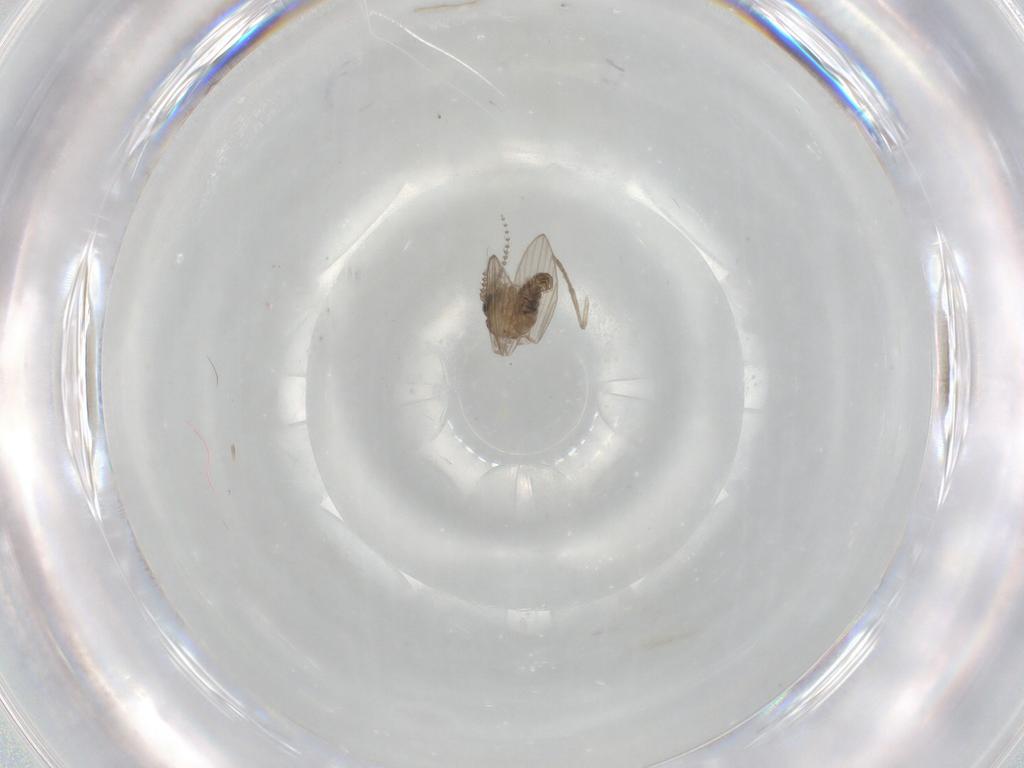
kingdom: Animalia
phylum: Arthropoda
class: Insecta
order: Diptera
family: Psychodidae
